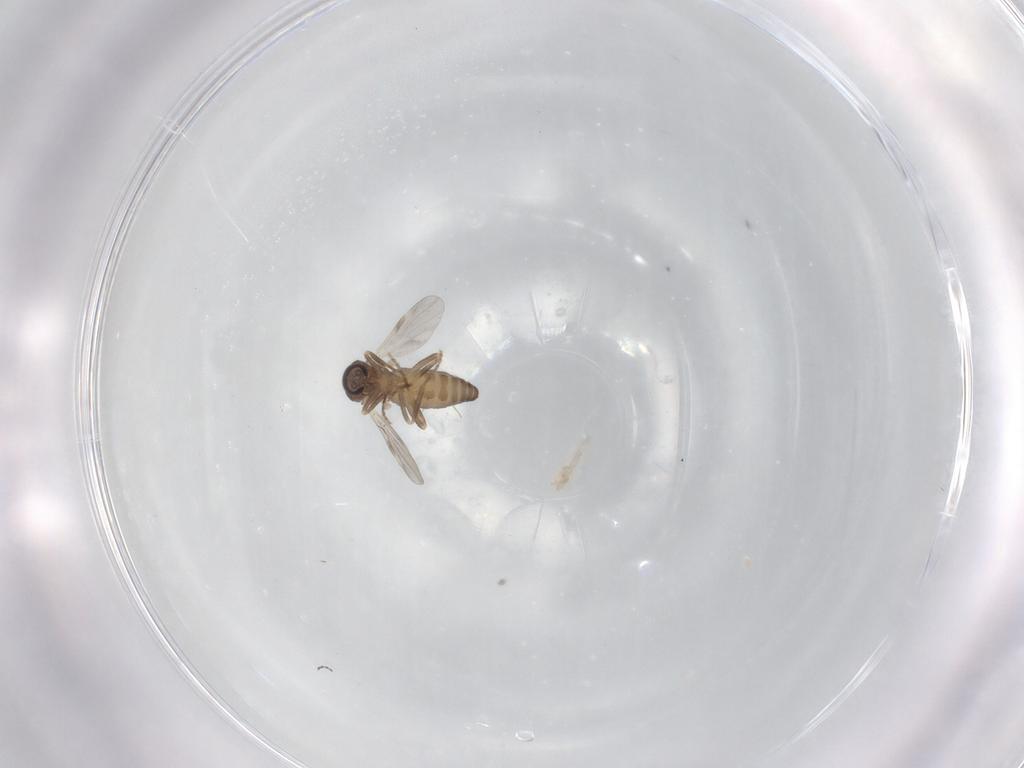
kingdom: Animalia
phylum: Arthropoda
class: Insecta
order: Diptera
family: Ceratopogonidae
